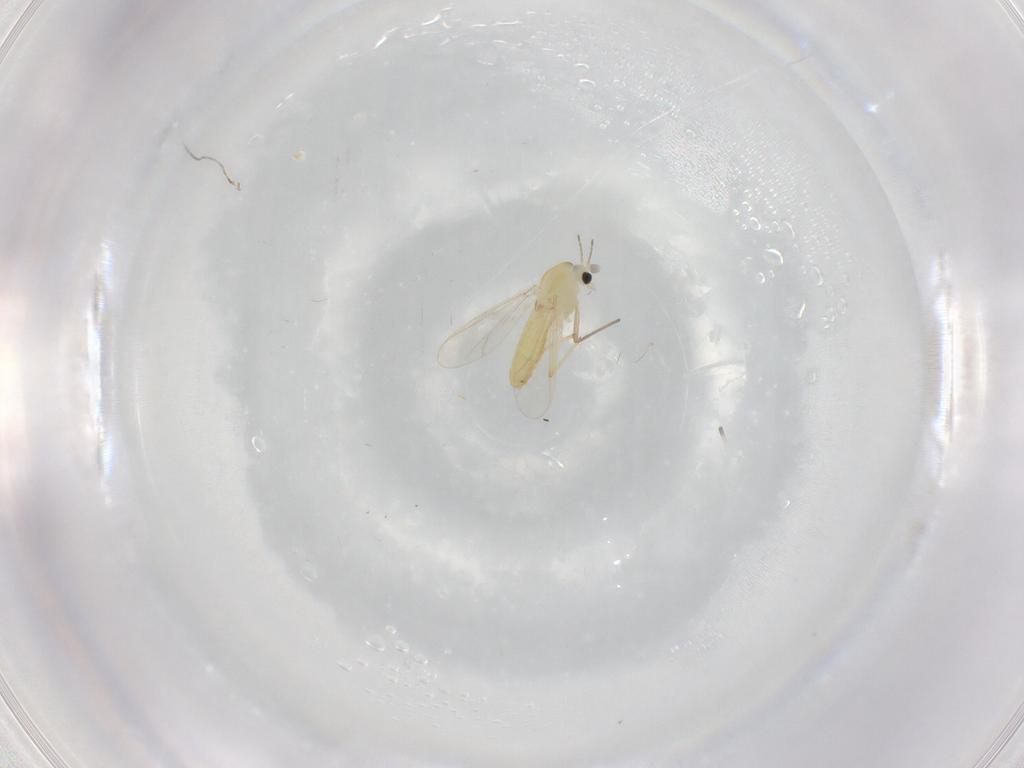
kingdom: Animalia
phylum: Arthropoda
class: Insecta
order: Diptera
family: Chironomidae
